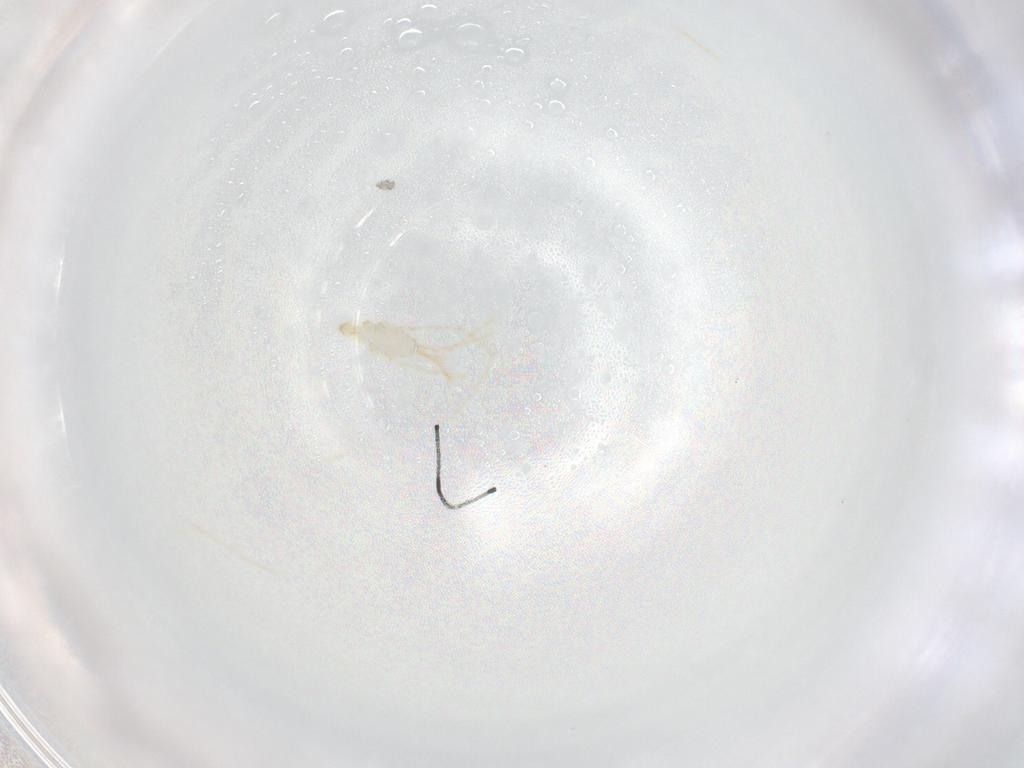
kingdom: Animalia
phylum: Arthropoda
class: Arachnida
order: Trombidiformes
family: Erythraeidae
